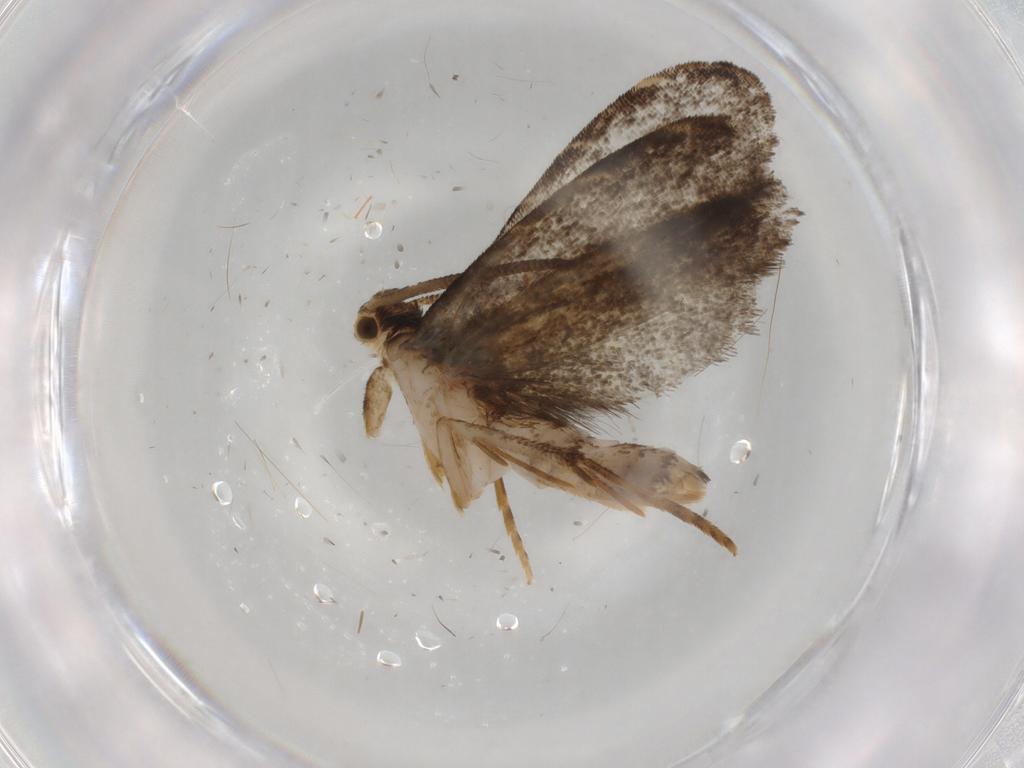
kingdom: Animalia
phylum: Arthropoda
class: Insecta
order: Lepidoptera
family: Dryadaulidae
